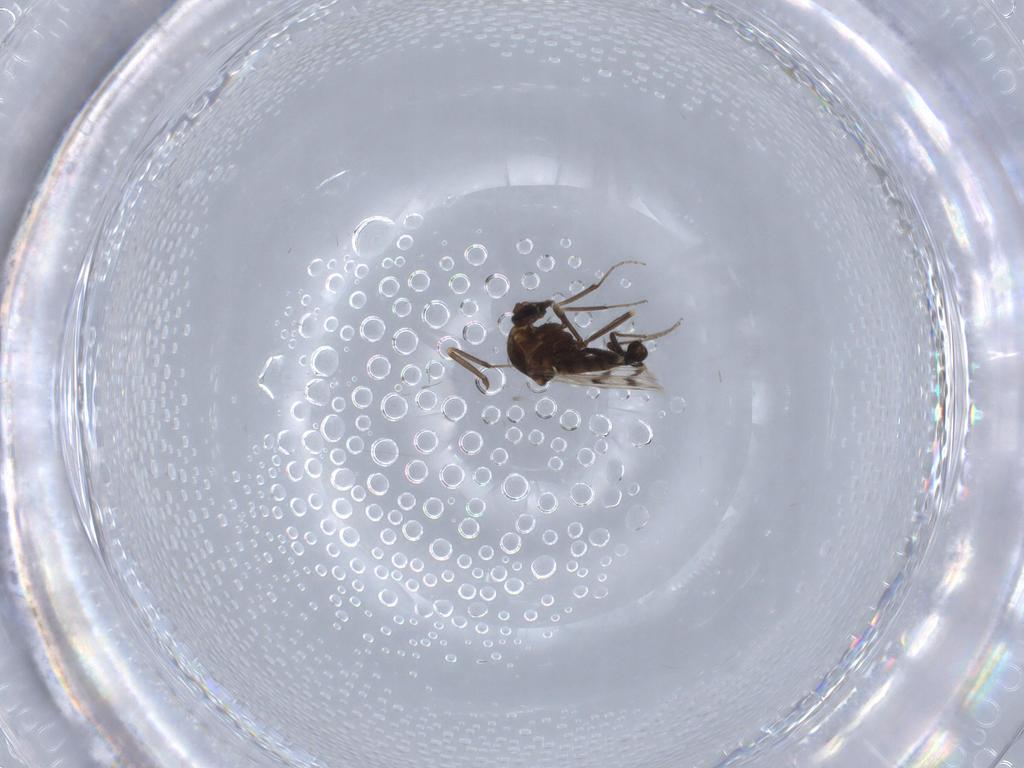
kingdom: Animalia
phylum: Arthropoda
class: Insecta
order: Diptera
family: Ceratopogonidae
